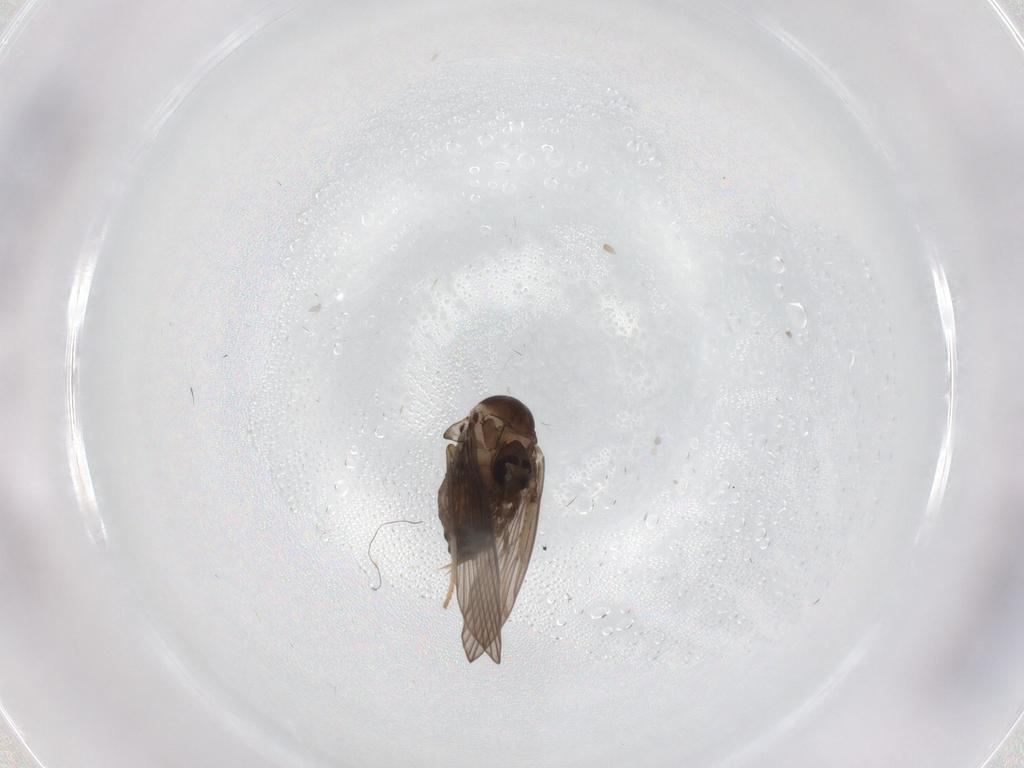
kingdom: Animalia
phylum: Arthropoda
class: Insecta
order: Diptera
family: Psychodidae
